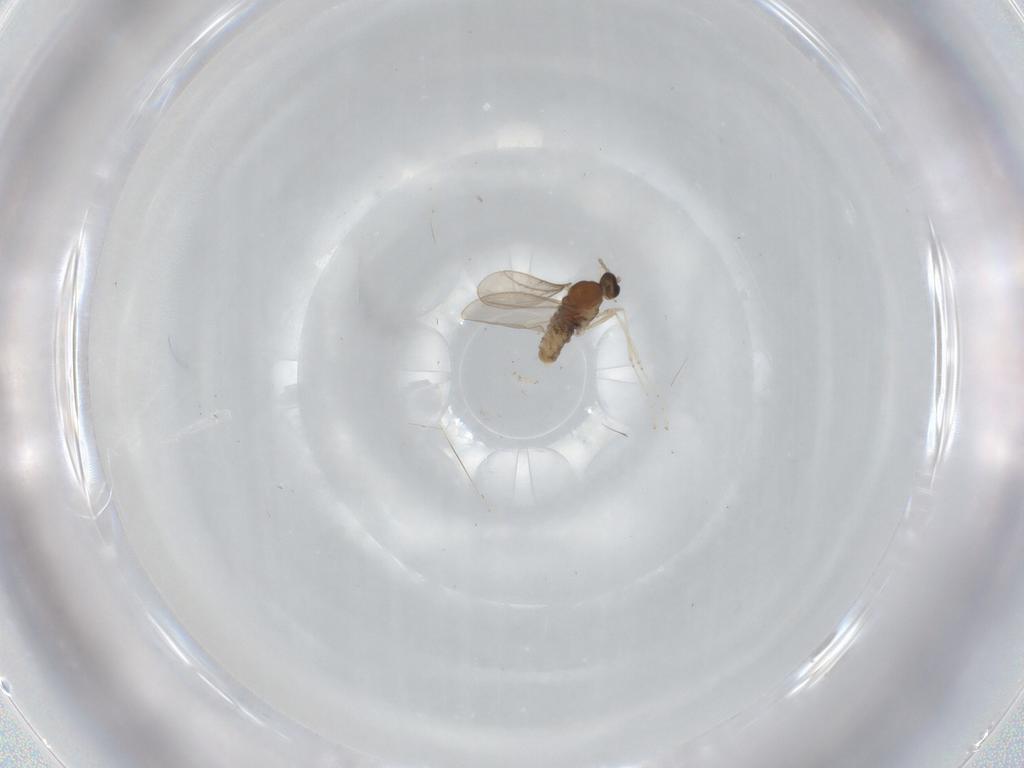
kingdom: Animalia
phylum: Arthropoda
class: Insecta
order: Diptera
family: Cecidomyiidae
